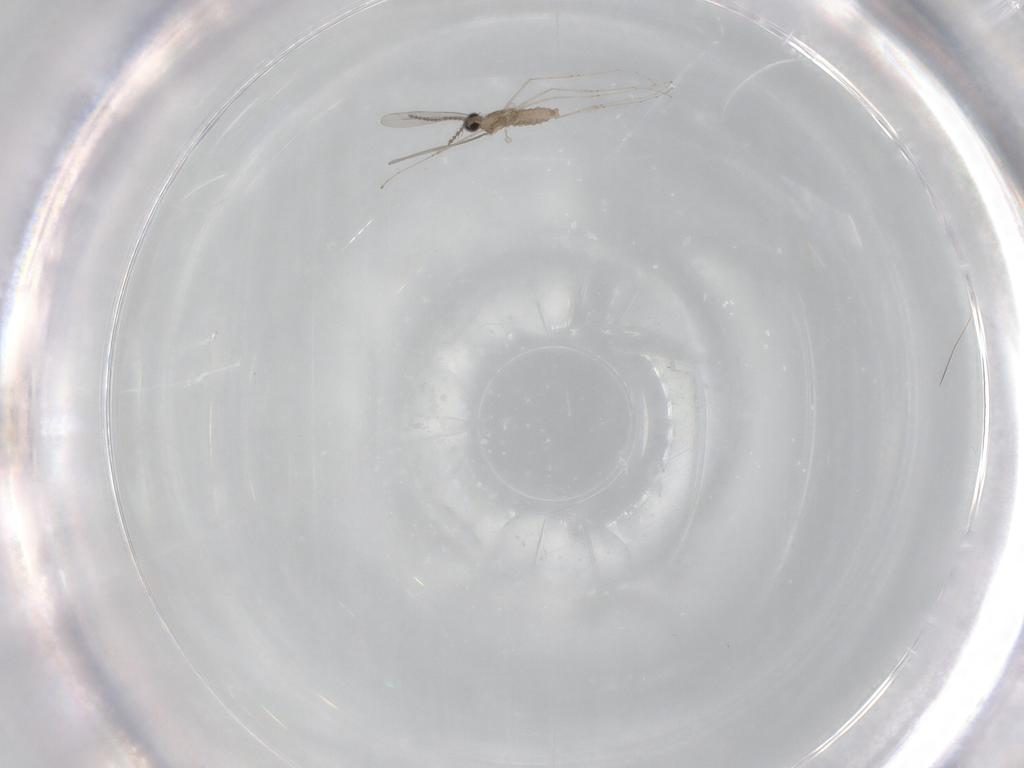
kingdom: Animalia
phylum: Arthropoda
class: Insecta
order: Diptera
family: Cecidomyiidae
